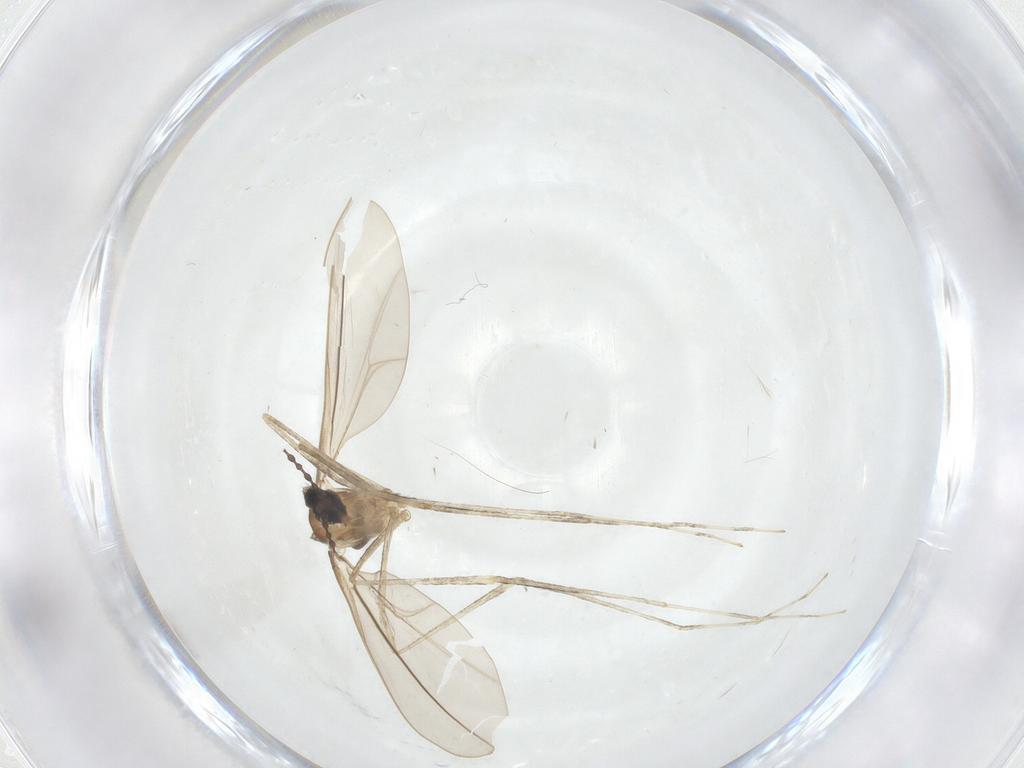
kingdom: Animalia
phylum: Arthropoda
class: Insecta
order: Diptera
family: Cecidomyiidae
